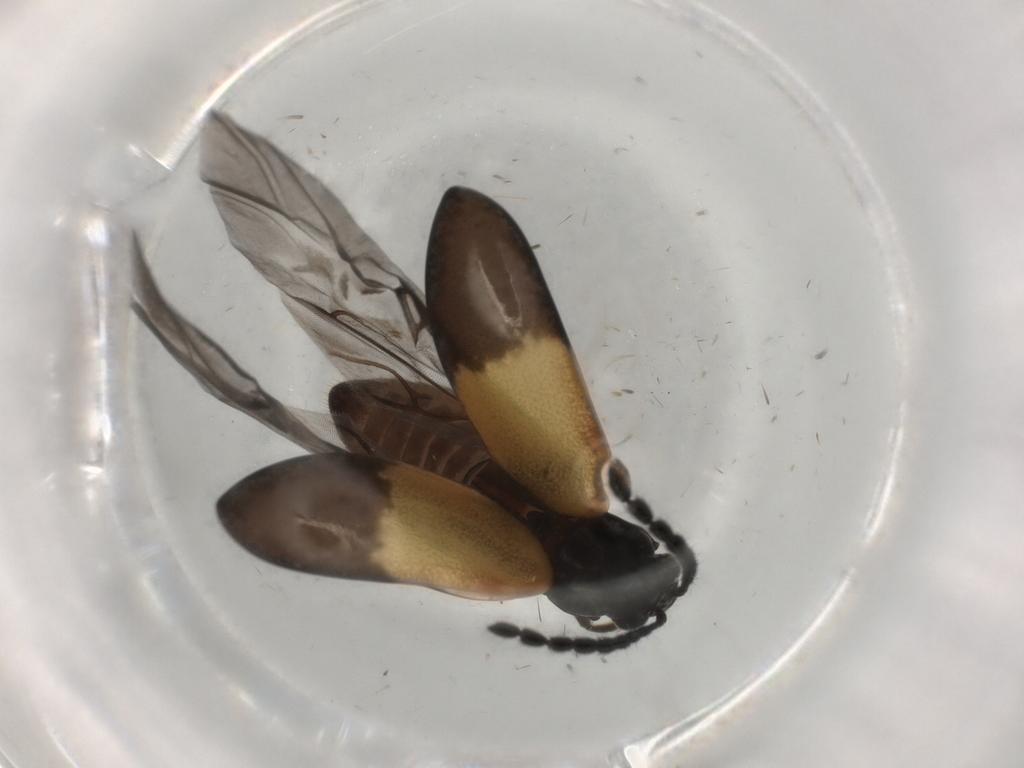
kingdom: Animalia
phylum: Arthropoda
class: Insecta
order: Coleoptera
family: Chrysomelidae
